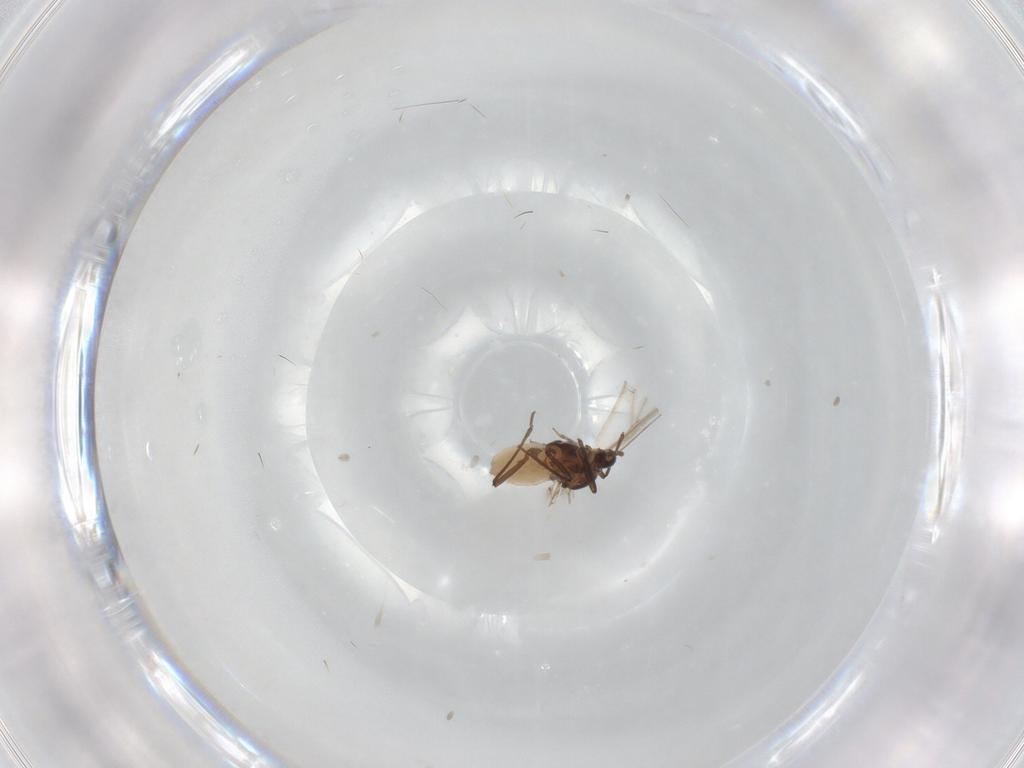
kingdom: Animalia
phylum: Arthropoda
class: Insecta
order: Hemiptera
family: Aphididae
